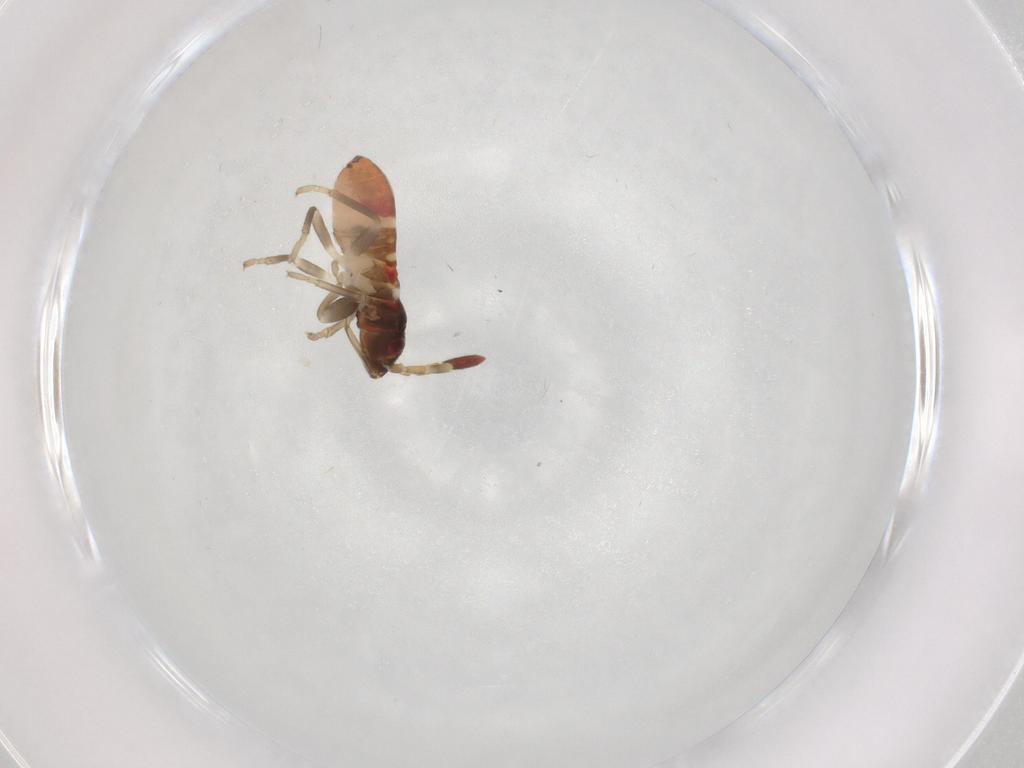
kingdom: Animalia
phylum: Arthropoda
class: Insecta
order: Hemiptera
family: Rhyparochromidae
